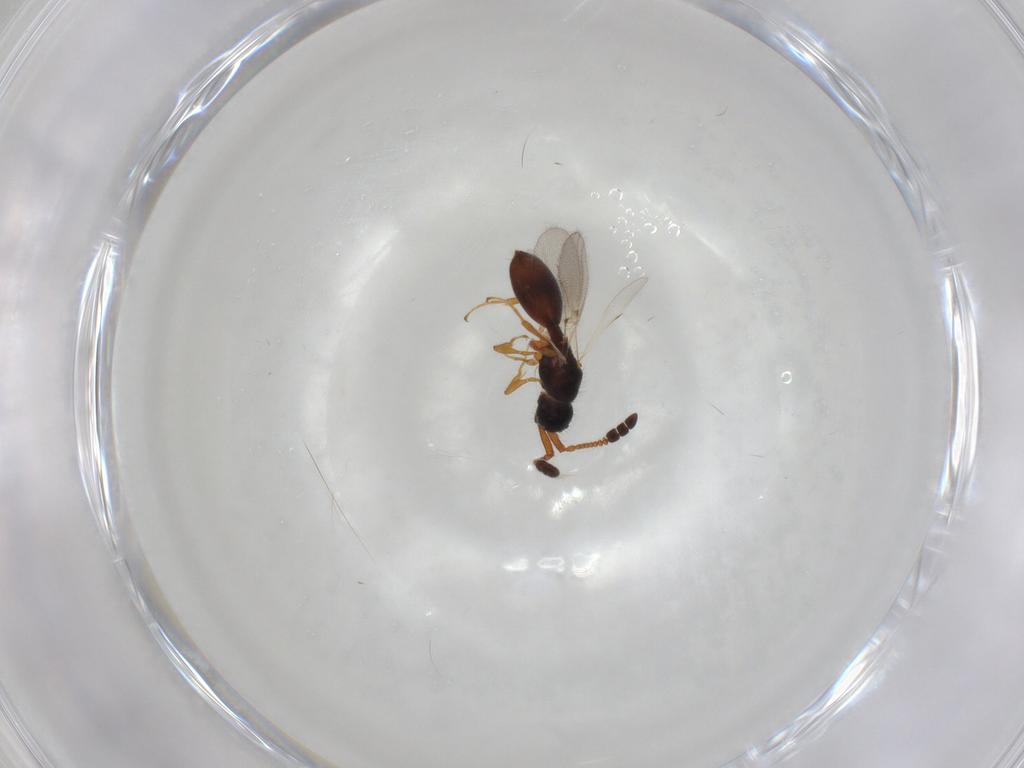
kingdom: Animalia
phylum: Arthropoda
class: Insecta
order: Hymenoptera
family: Diapriidae
